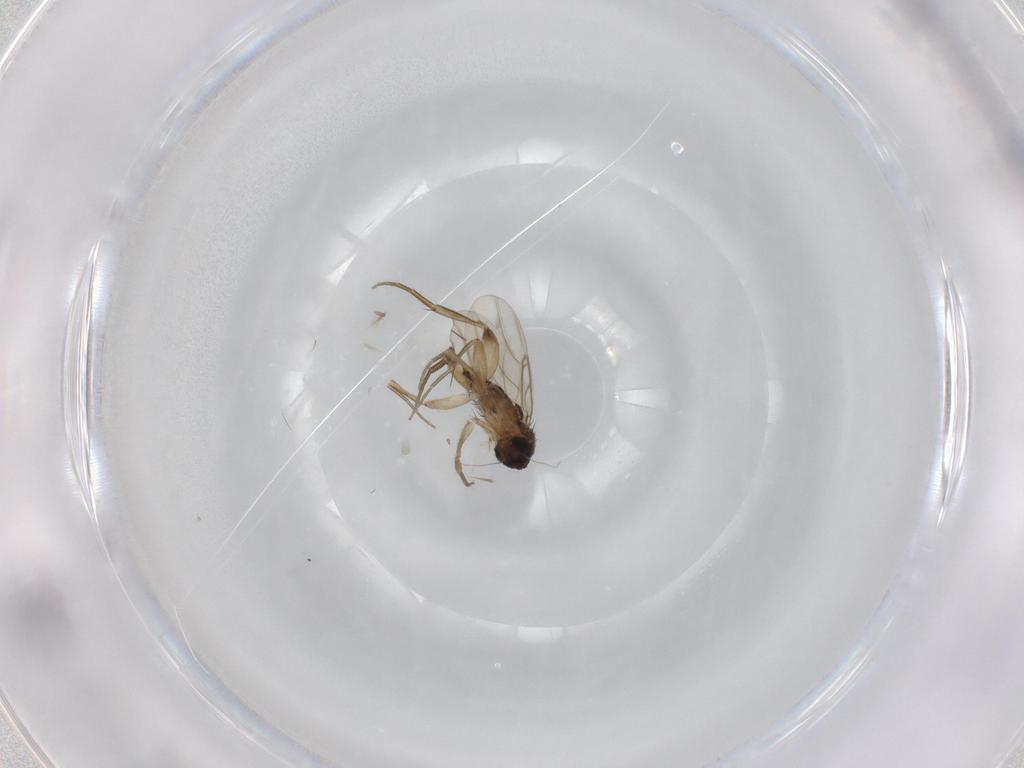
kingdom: Animalia
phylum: Arthropoda
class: Insecta
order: Diptera
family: Phoridae
